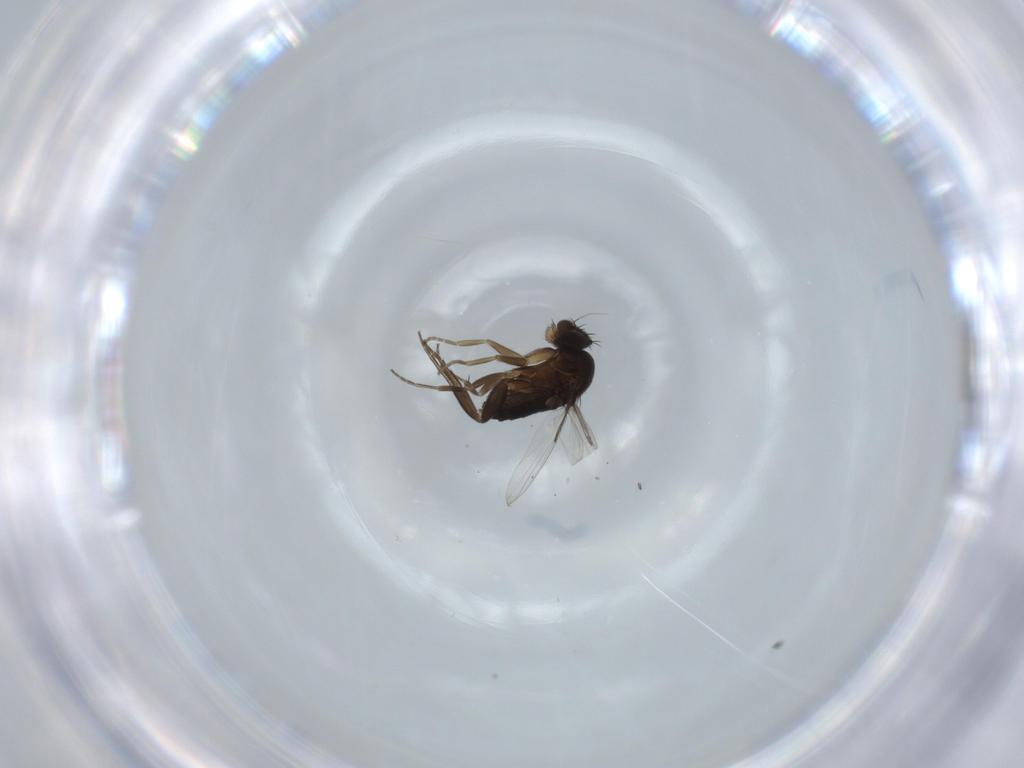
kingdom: Animalia
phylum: Arthropoda
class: Insecta
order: Diptera
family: Phoridae
